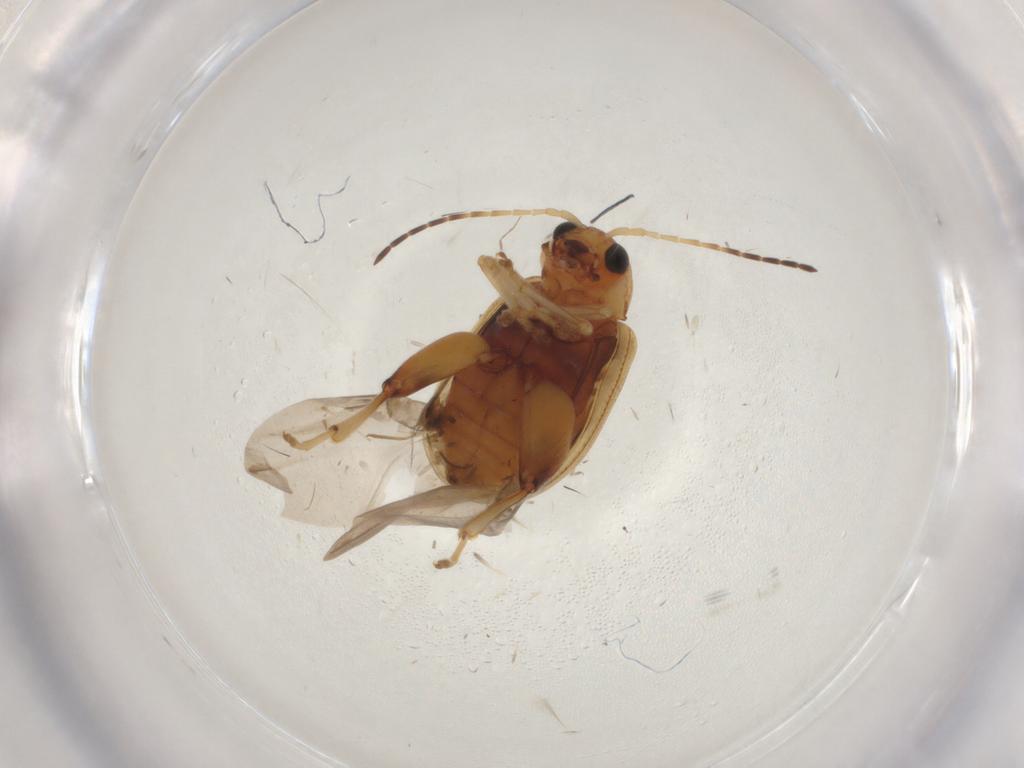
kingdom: Animalia
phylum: Arthropoda
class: Insecta
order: Coleoptera
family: Chrysomelidae
